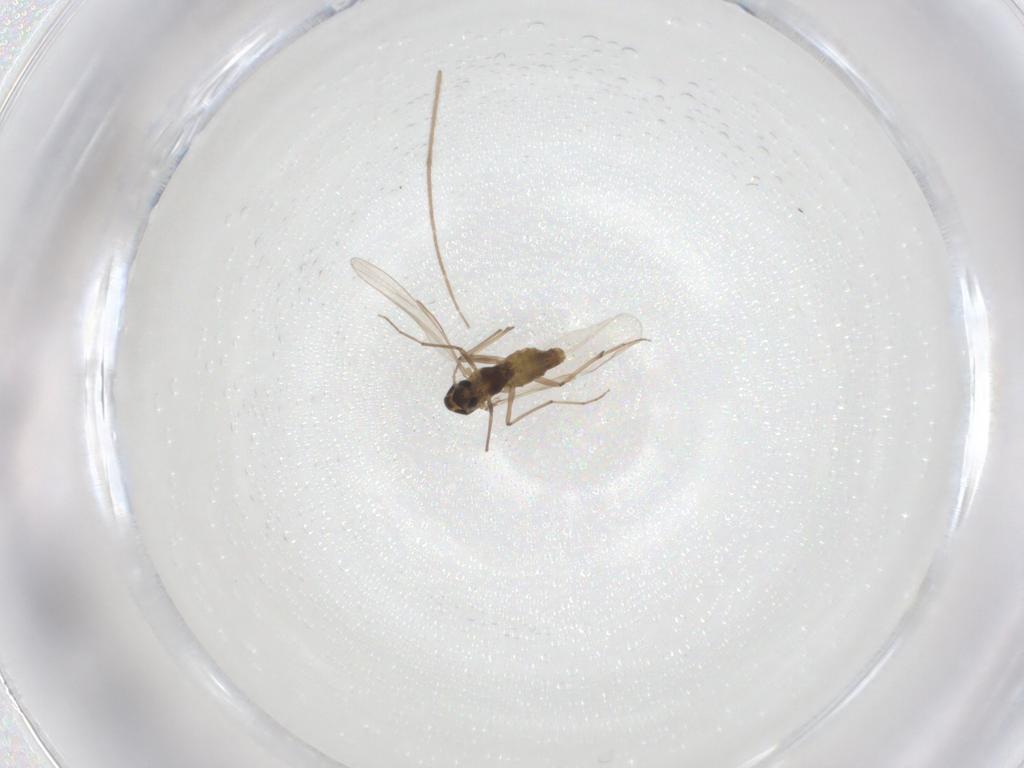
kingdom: Animalia
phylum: Arthropoda
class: Insecta
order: Diptera
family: Chironomidae
